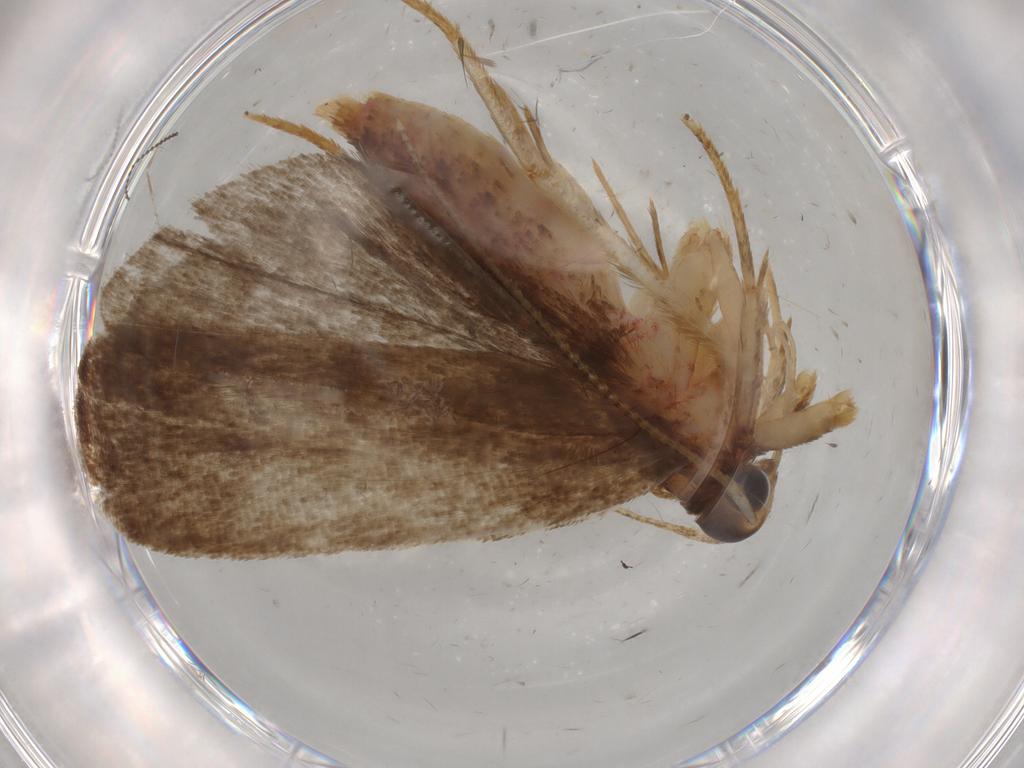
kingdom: Animalia
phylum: Arthropoda
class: Insecta
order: Lepidoptera
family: Autostichidae
